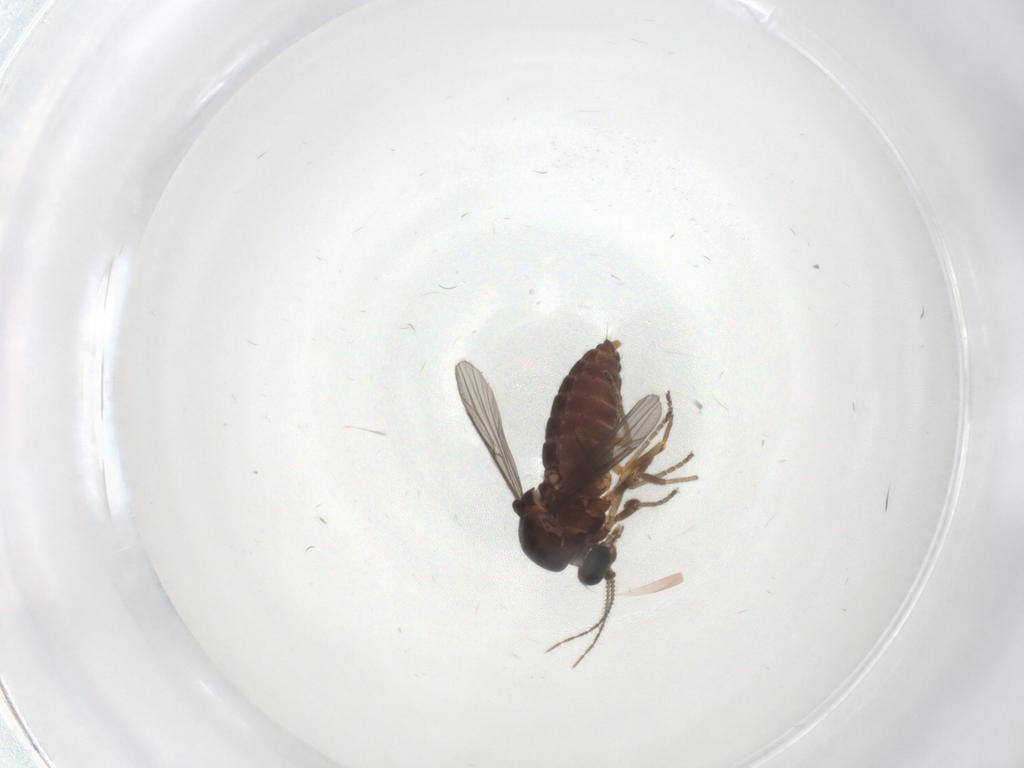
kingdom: Animalia
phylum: Arthropoda
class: Insecta
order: Diptera
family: Ceratopogonidae
